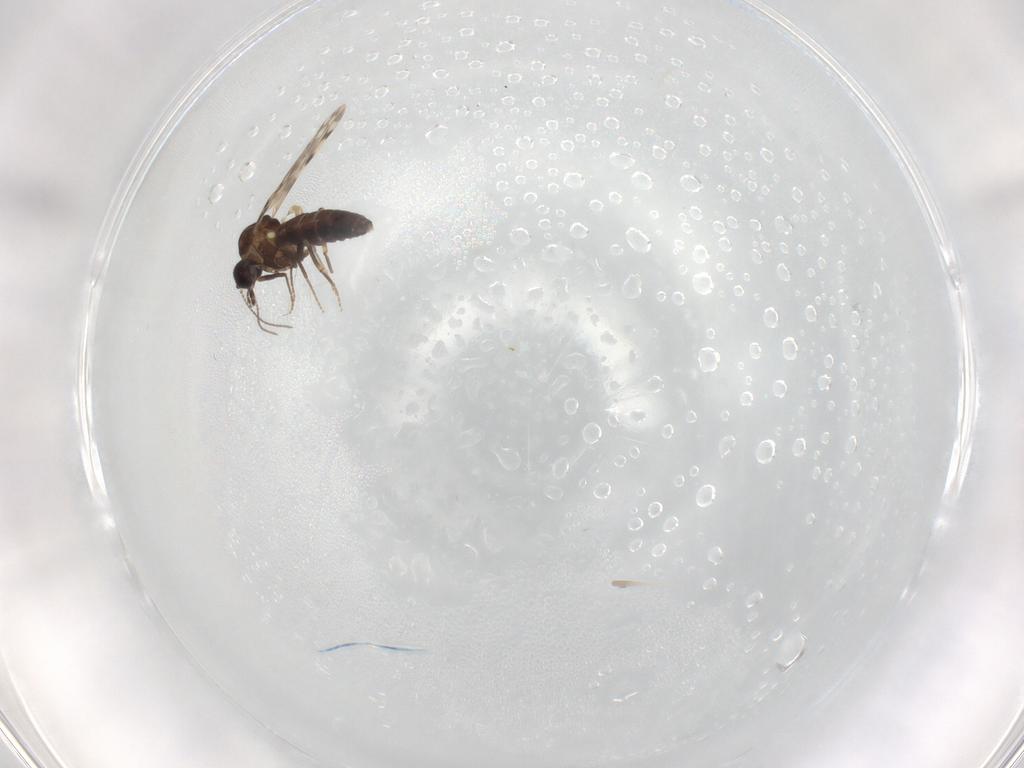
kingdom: Animalia
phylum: Arthropoda
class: Insecta
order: Diptera
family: Ceratopogonidae
